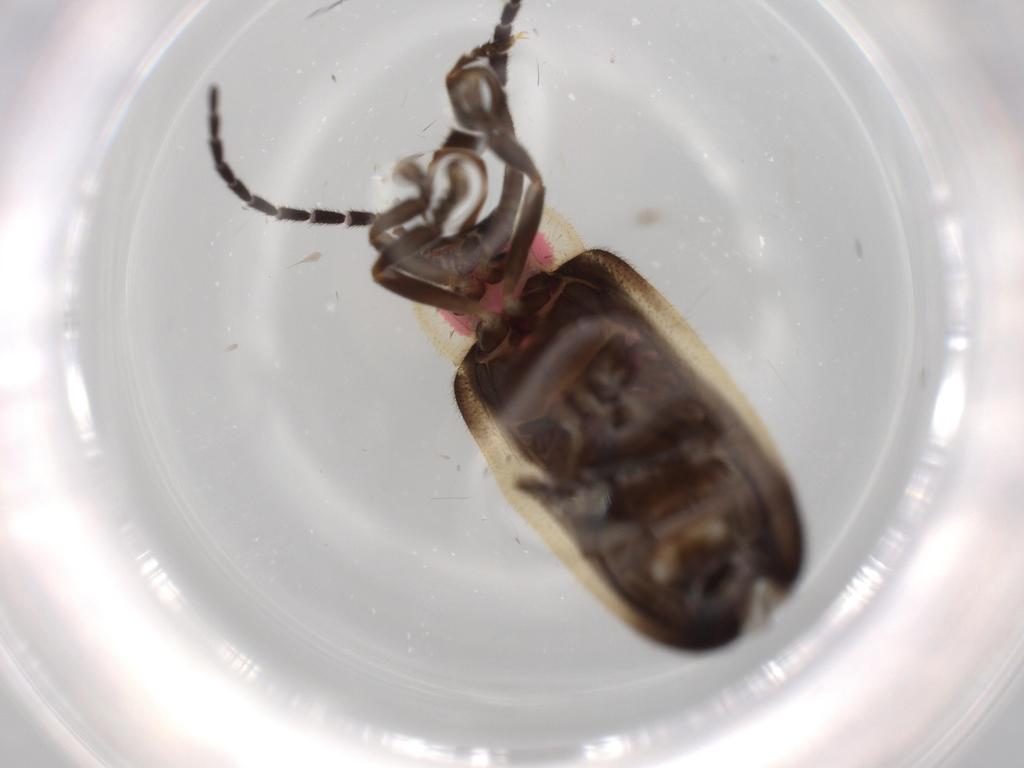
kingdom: Animalia
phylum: Arthropoda
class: Insecta
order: Coleoptera
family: Lampyridae
